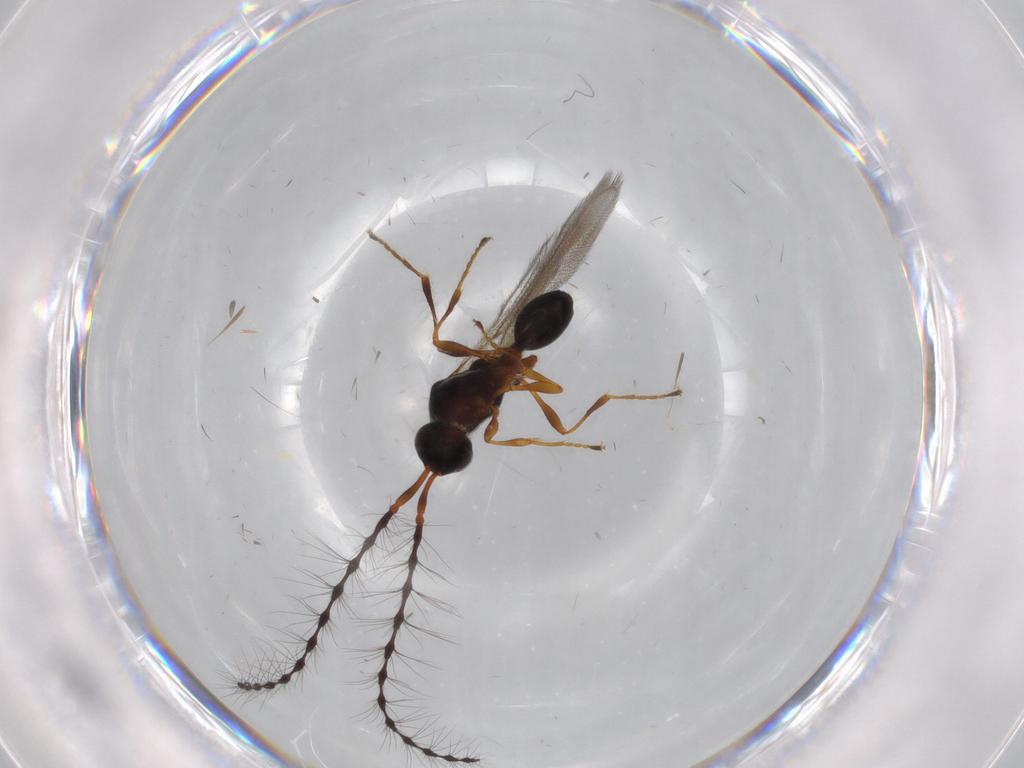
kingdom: Animalia
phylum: Arthropoda
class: Insecta
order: Hymenoptera
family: Diapriidae
